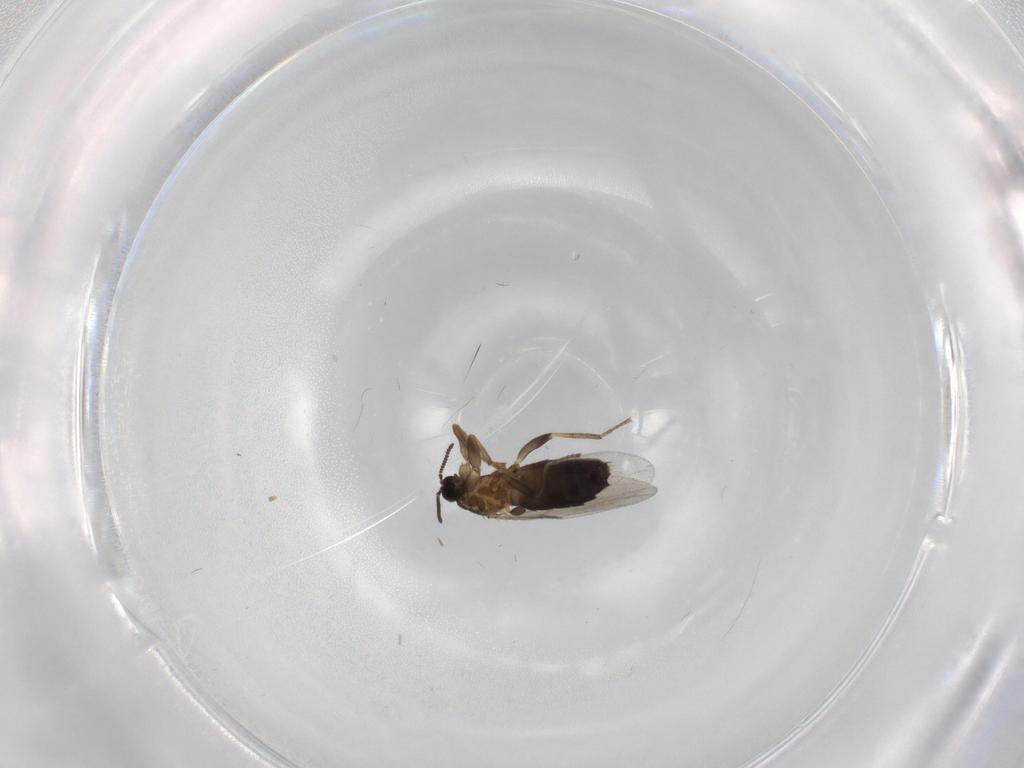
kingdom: Animalia
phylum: Arthropoda
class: Insecta
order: Diptera
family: Scatopsidae
